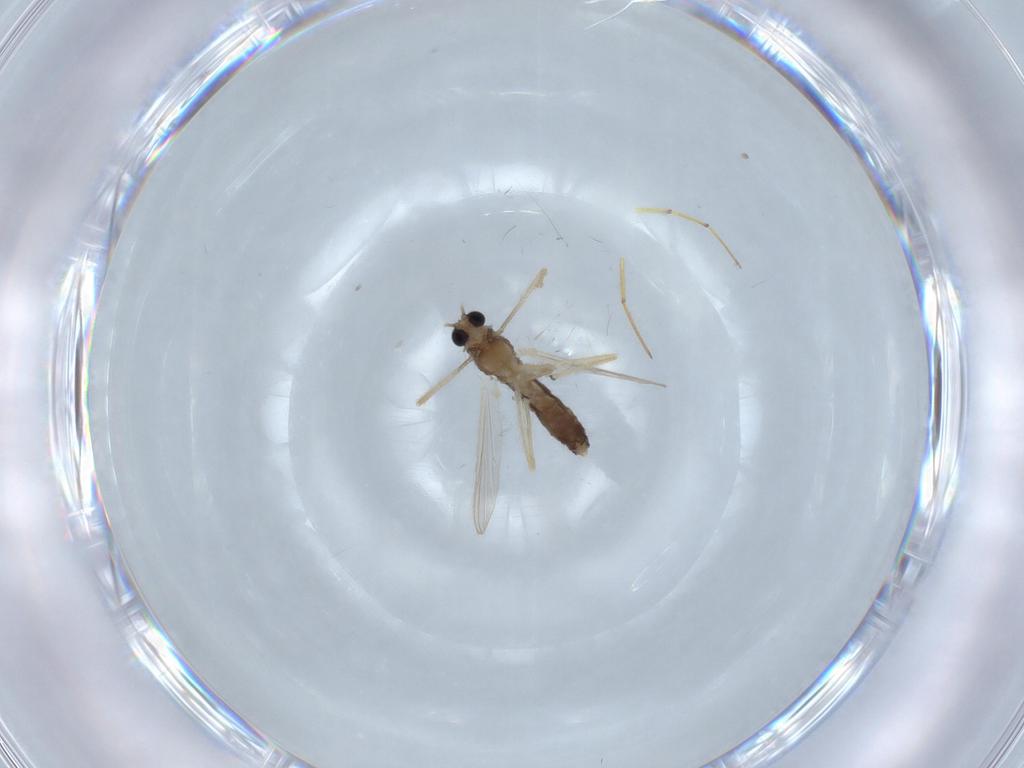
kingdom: Animalia
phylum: Arthropoda
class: Insecta
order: Diptera
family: Chironomidae
